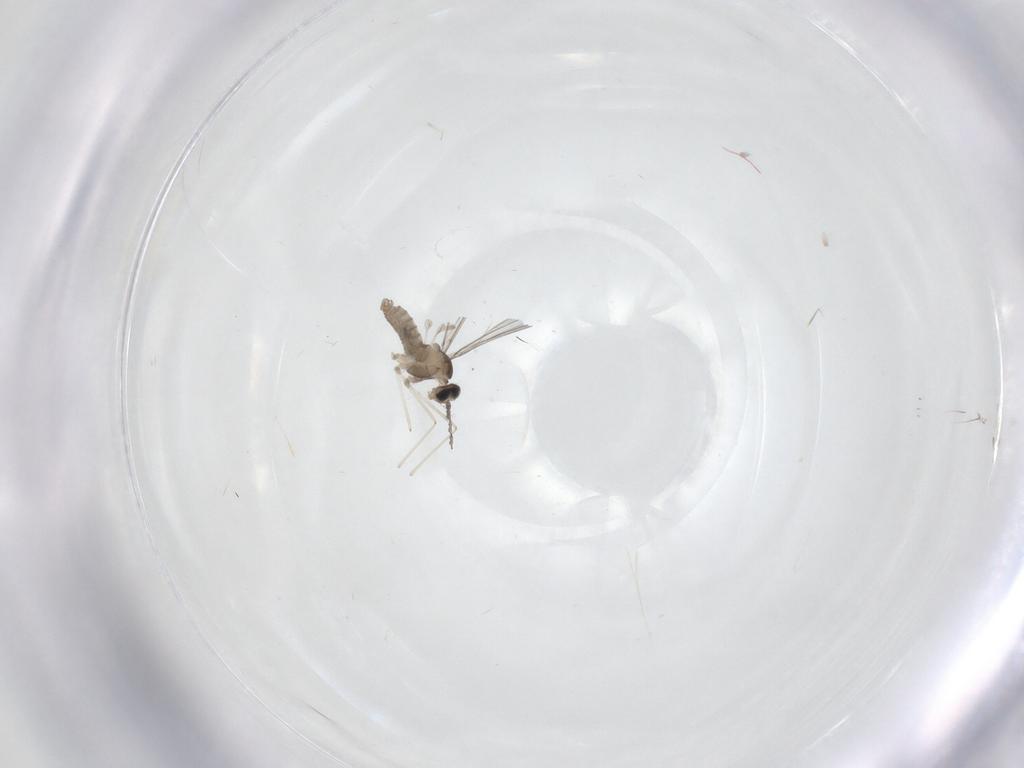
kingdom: Animalia
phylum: Arthropoda
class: Insecta
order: Diptera
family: Cecidomyiidae
